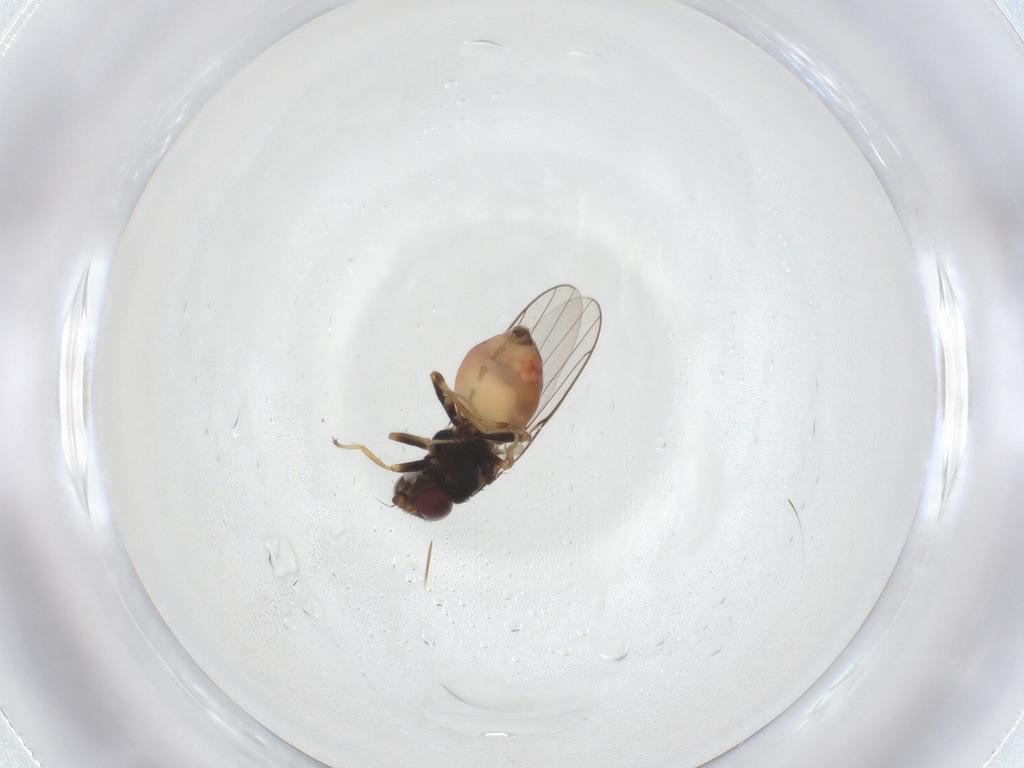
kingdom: Animalia
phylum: Arthropoda
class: Insecta
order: Diptera
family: Chloropidae
